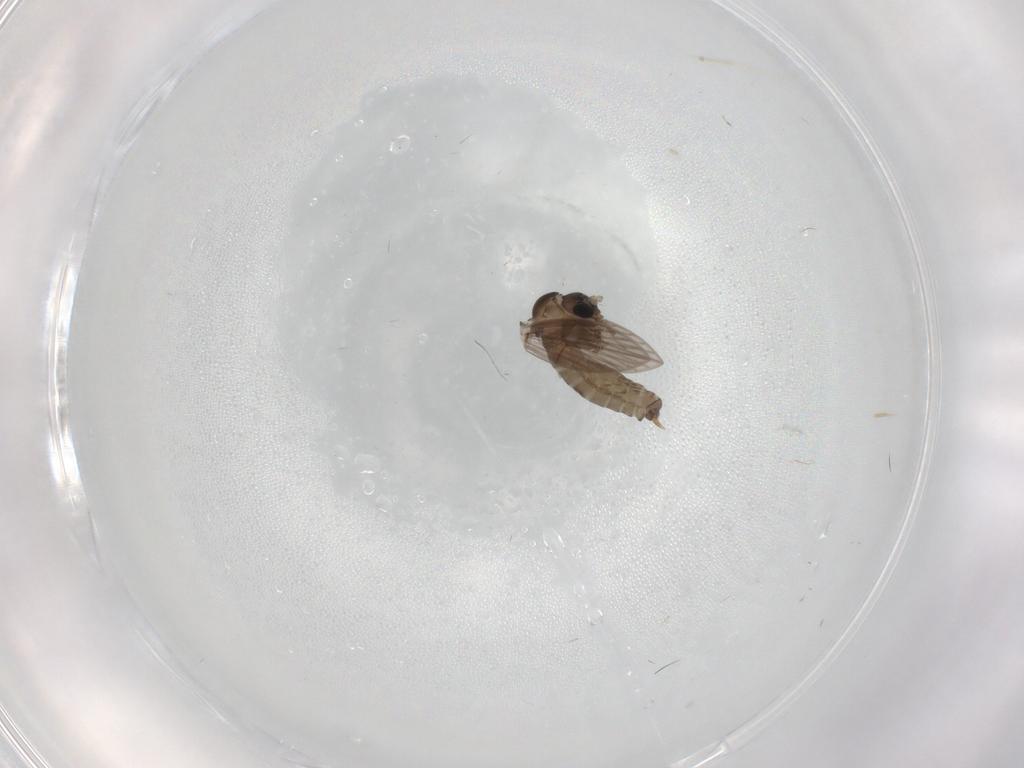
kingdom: Animalia
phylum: Arthropoda
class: Insecta
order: Diptera
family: Psychodidae
